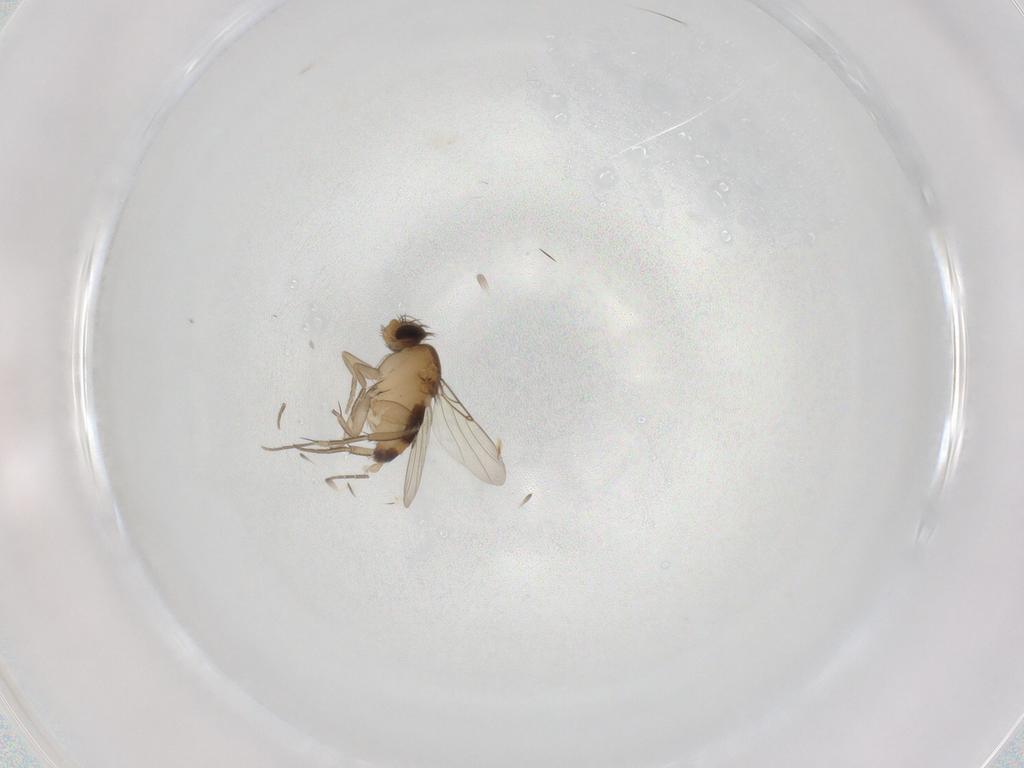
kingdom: Animalia
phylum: Arthropoda
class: Insecta
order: Diptera
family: Phoridae
